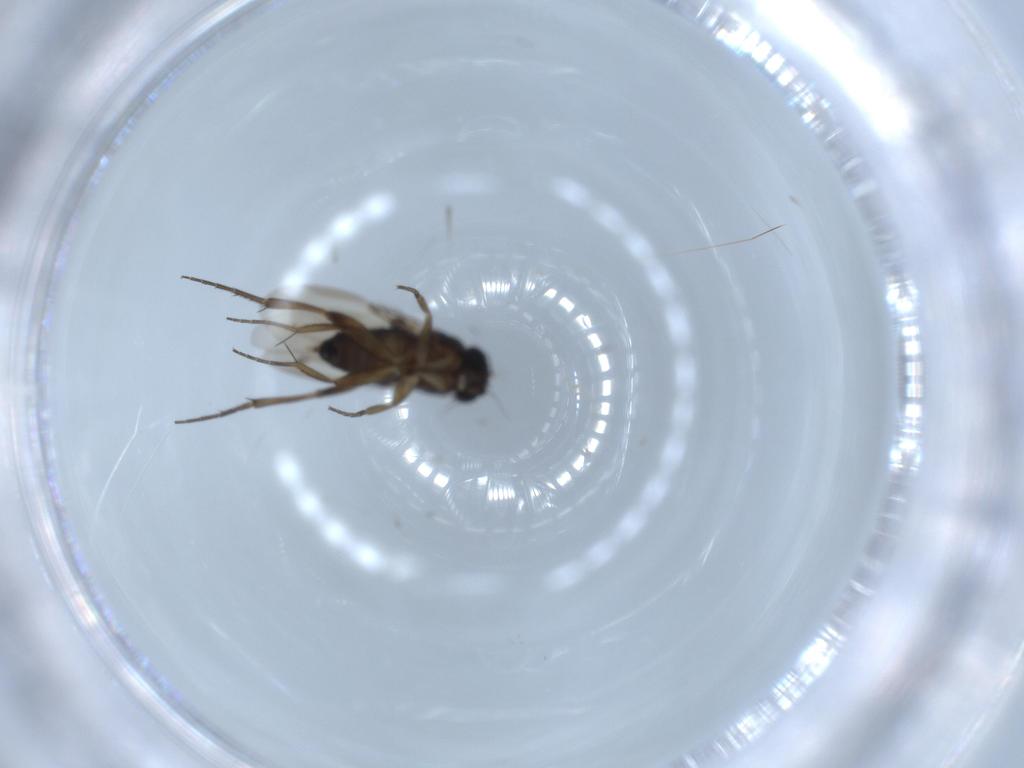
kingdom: Animalia
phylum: Arthropoda
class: Insecta
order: Diptera
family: Phoridae
